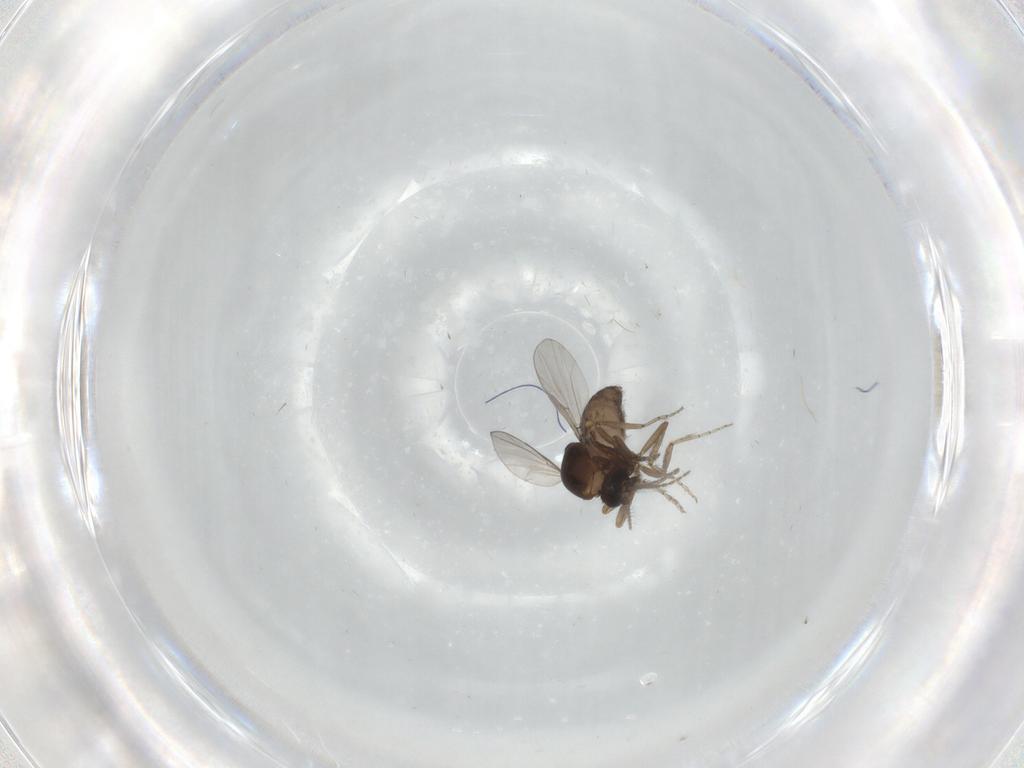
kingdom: Animalia
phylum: Arthropoda
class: Insecta
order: Diptera
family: Ceratopogonidae
